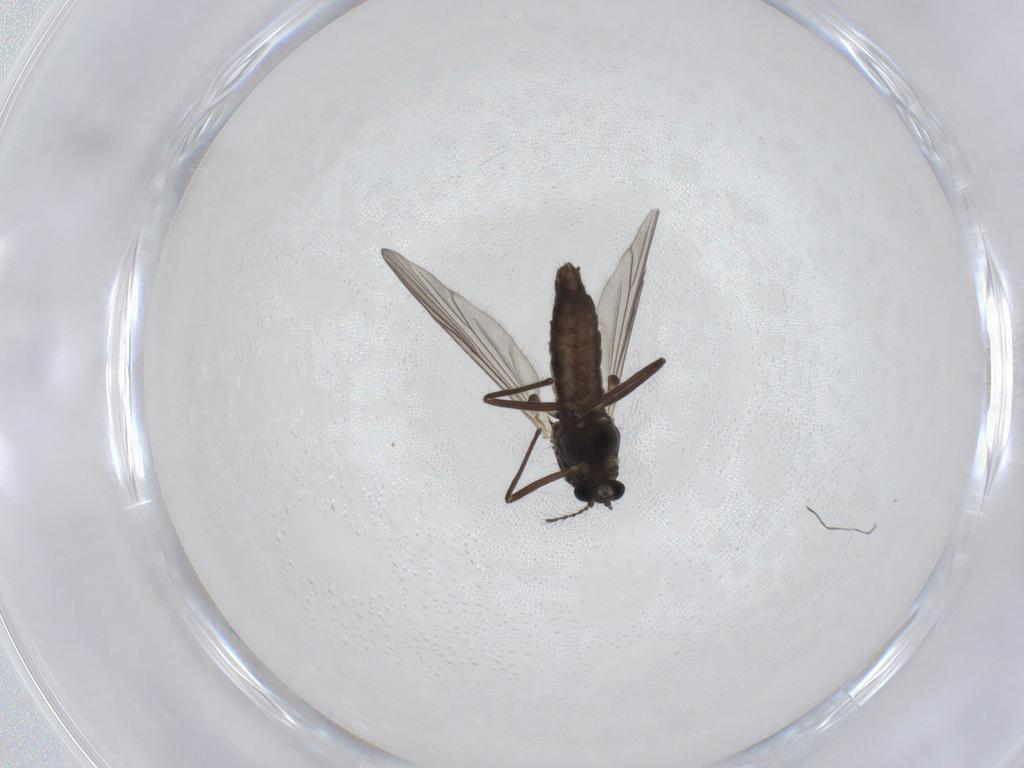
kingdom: Animalia
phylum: Arthropoda
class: Insecta
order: Diptera
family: Chironomidae
